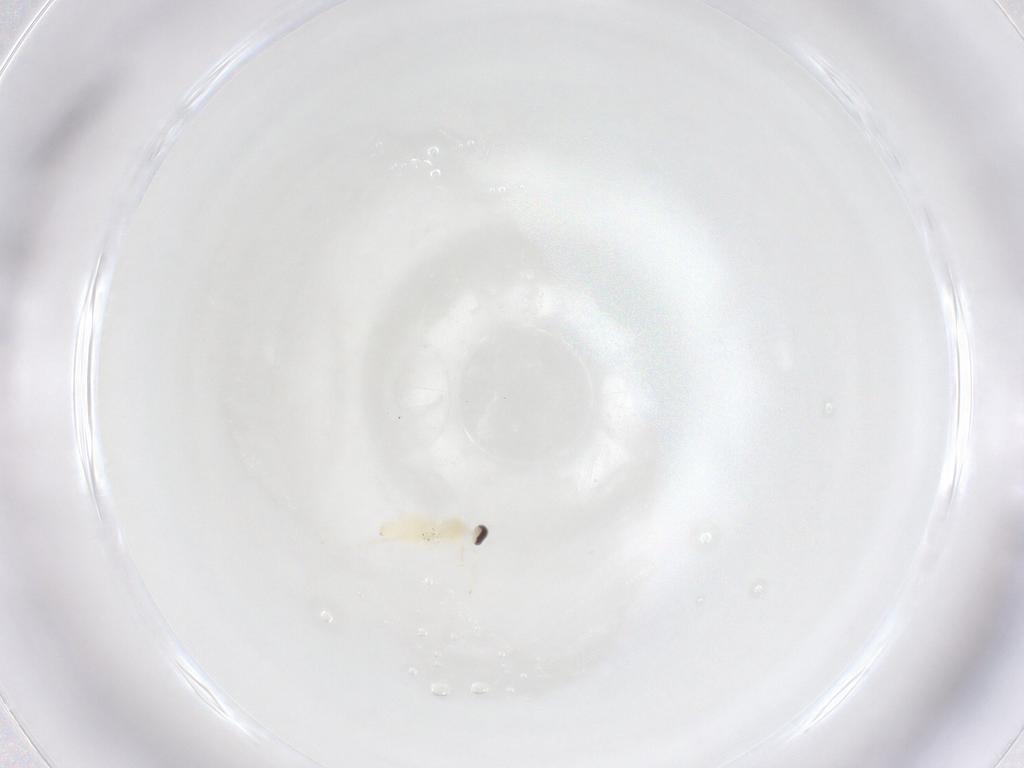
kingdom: Animalia
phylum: Arthropoda
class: Insecta
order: Diptera
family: Cecidomyiidae
